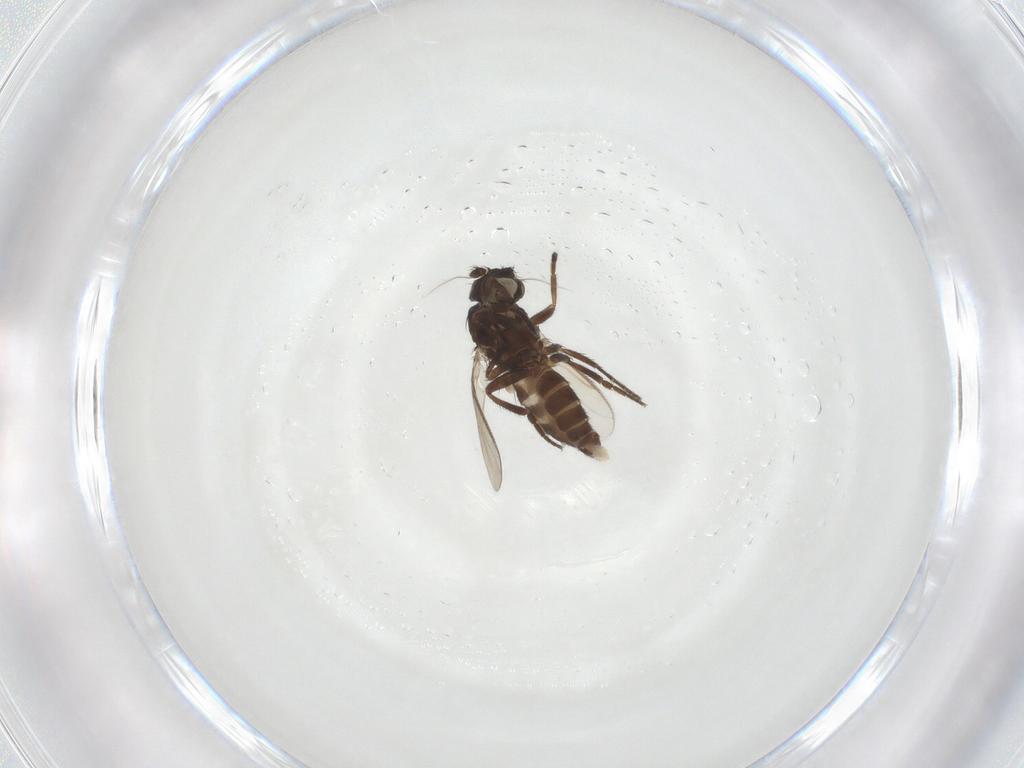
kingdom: Animalia
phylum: Arthropoda
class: Insecta
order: Diptera
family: Sphaeroceridae
